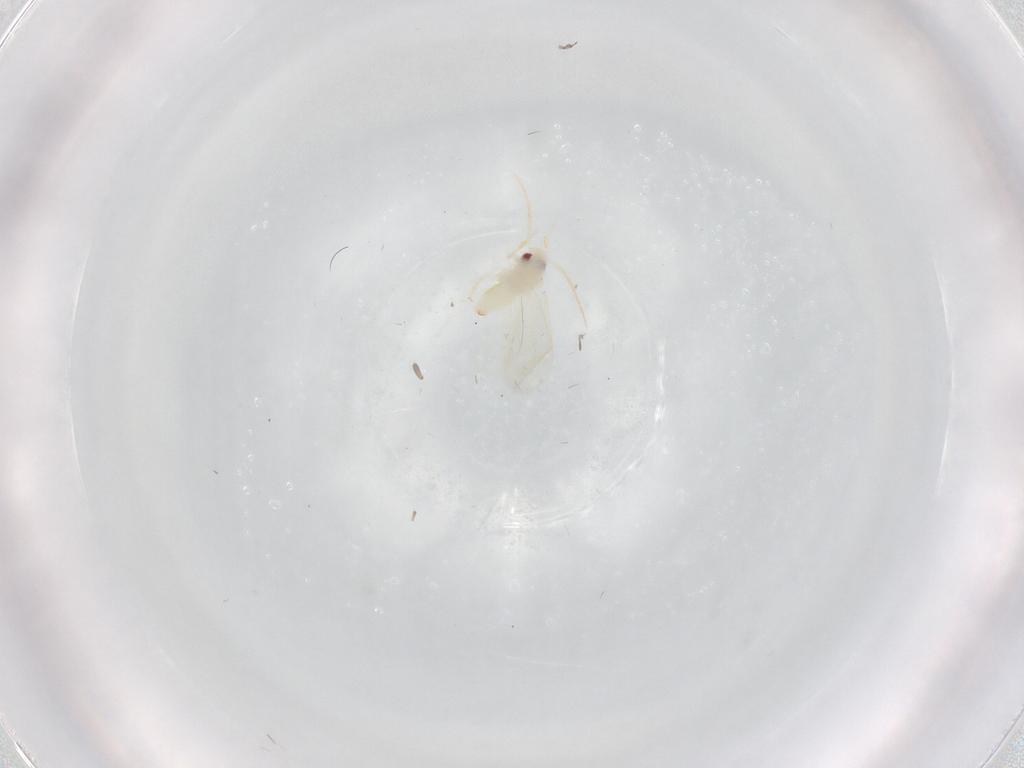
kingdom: Animalia
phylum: Arthropoda
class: Insecta
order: Hemiptera
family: Aleyrodidae
